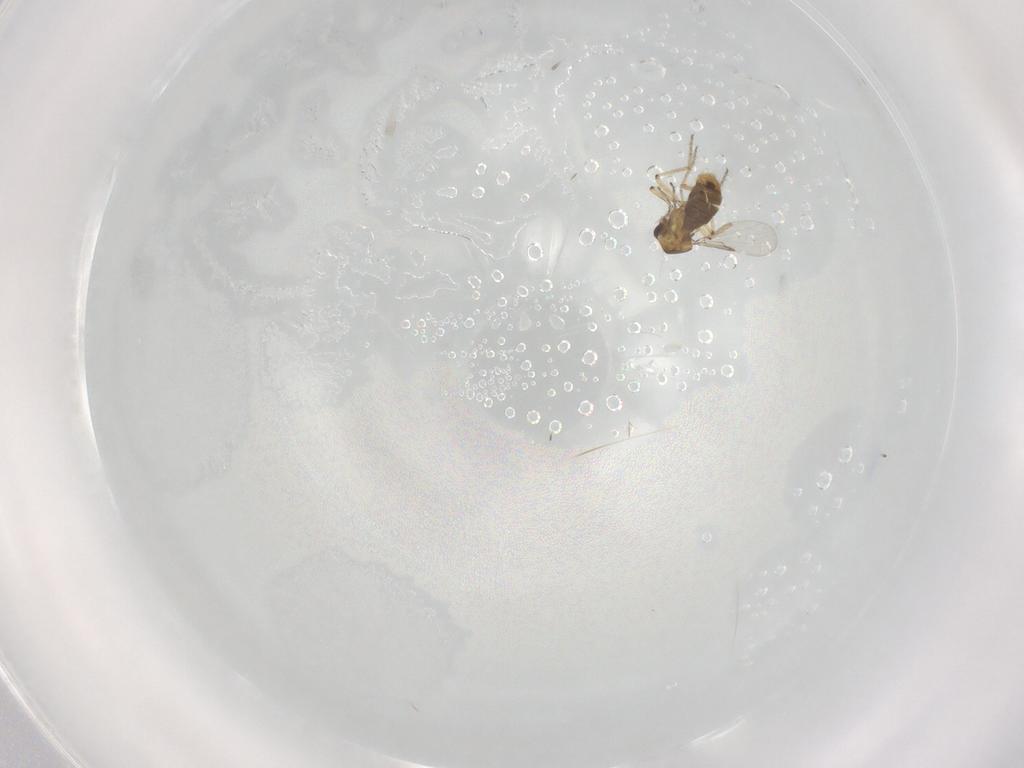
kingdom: Animalia
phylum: Arthropoda
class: Insecta
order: Diptera
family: Ceratopogonidae
